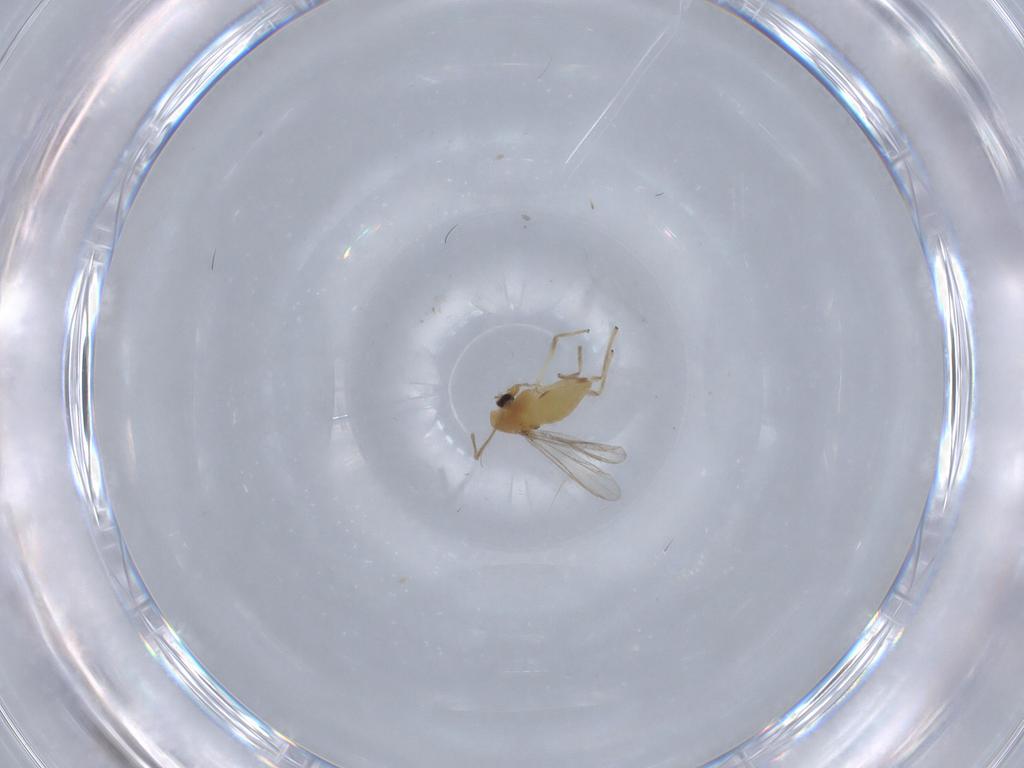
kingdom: Animalia
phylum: Arthropoda
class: Insecta
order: Diptera
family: Chironomidae
